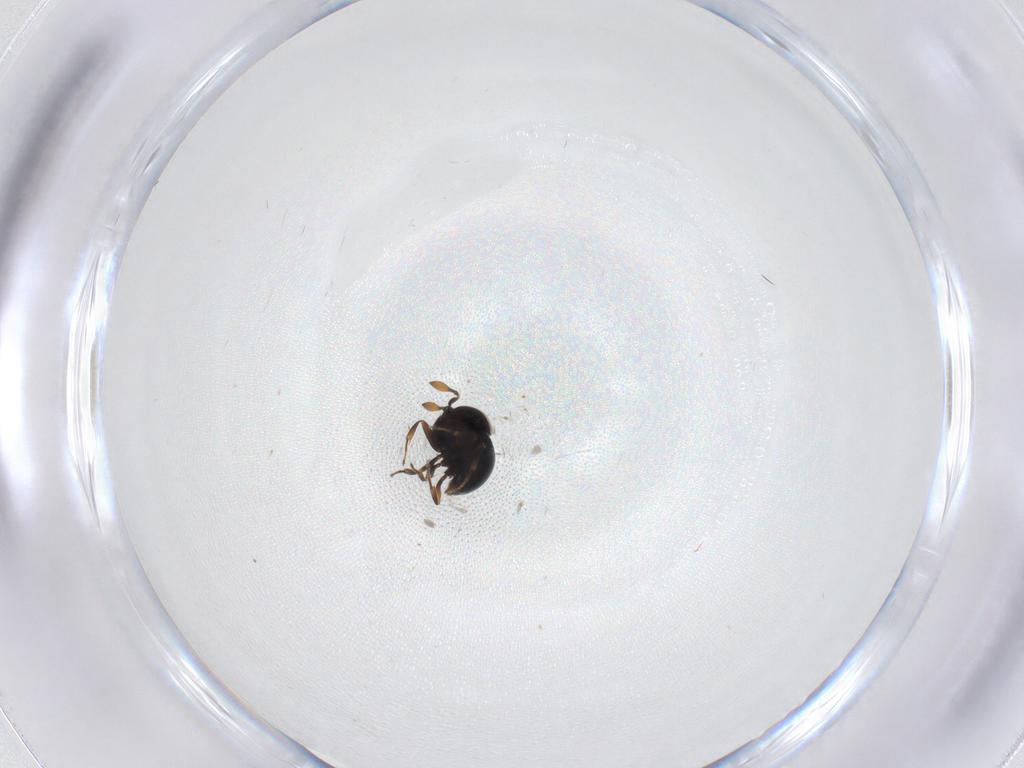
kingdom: Animalia
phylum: Arthropoda
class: Insecta
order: Hymenoptera
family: Scelionidae
